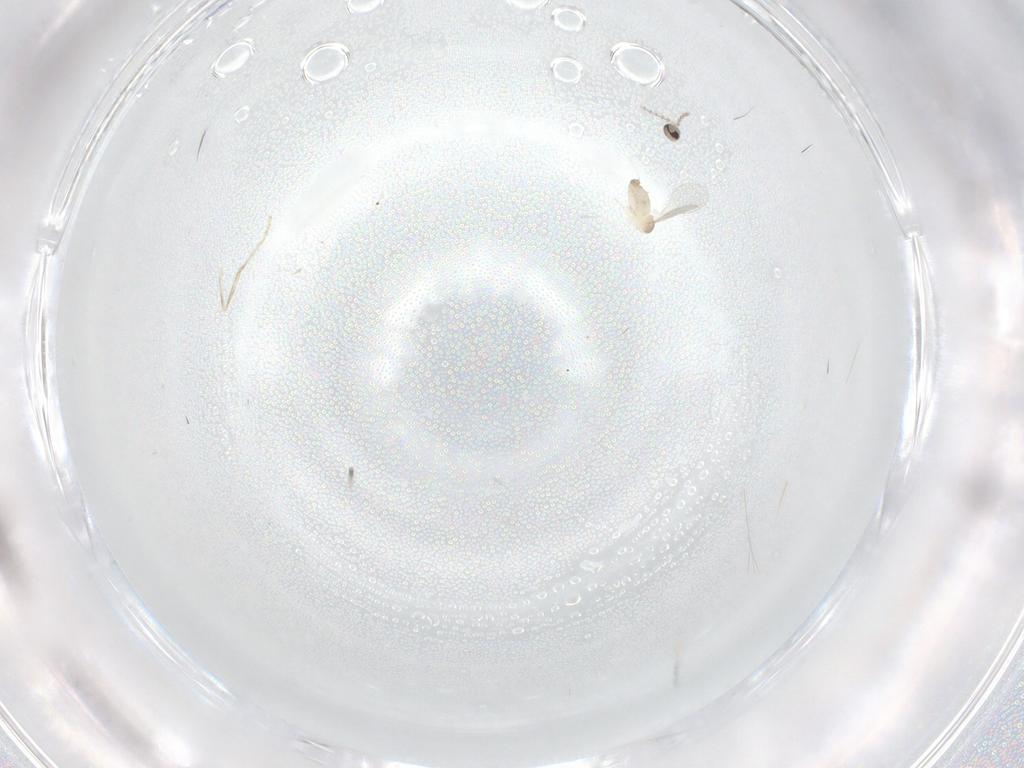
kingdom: Animalia
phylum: Arthropoda
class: Insecta
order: Diptera
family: Cecidomyiidae
